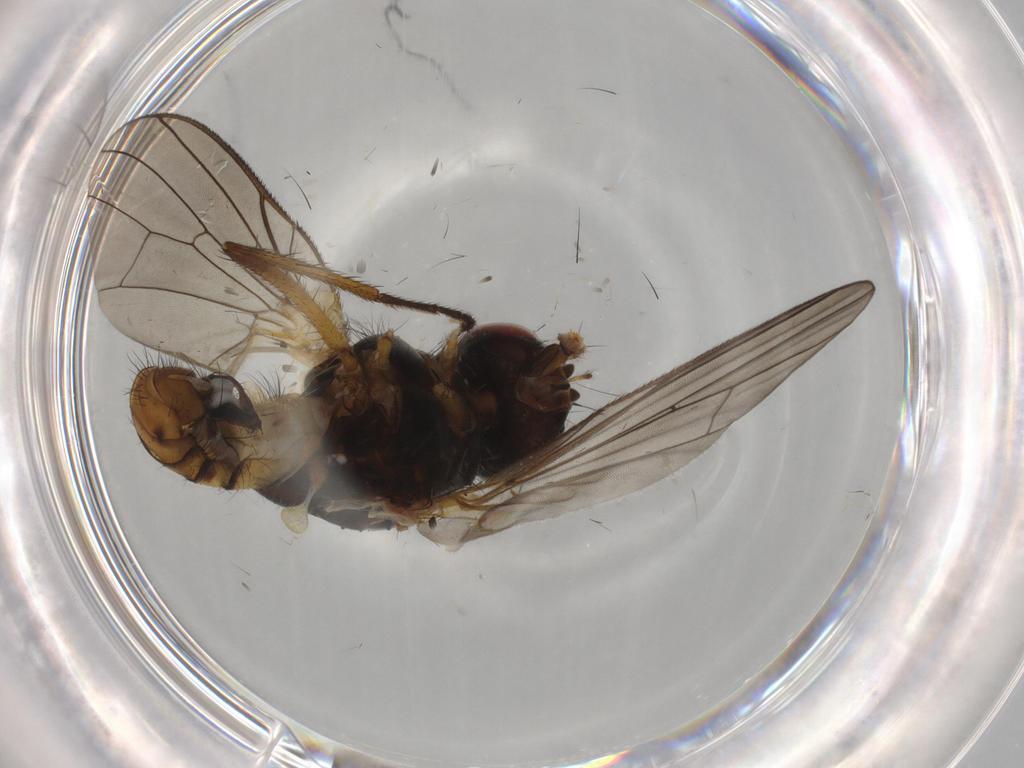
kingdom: Animalia
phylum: Arthropoda
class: Insecta
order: Diptera
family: Anthomyiidae
